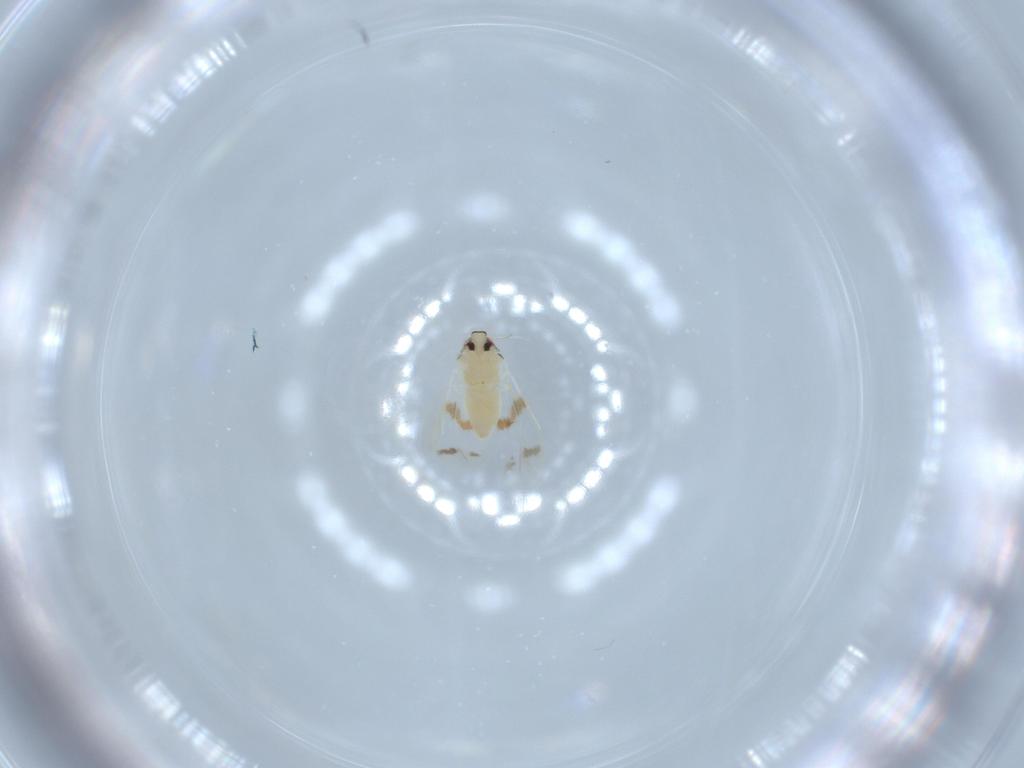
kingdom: Animalia
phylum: Arthropoda
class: Insecta
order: Hemiptera
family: Aleyrodidae
